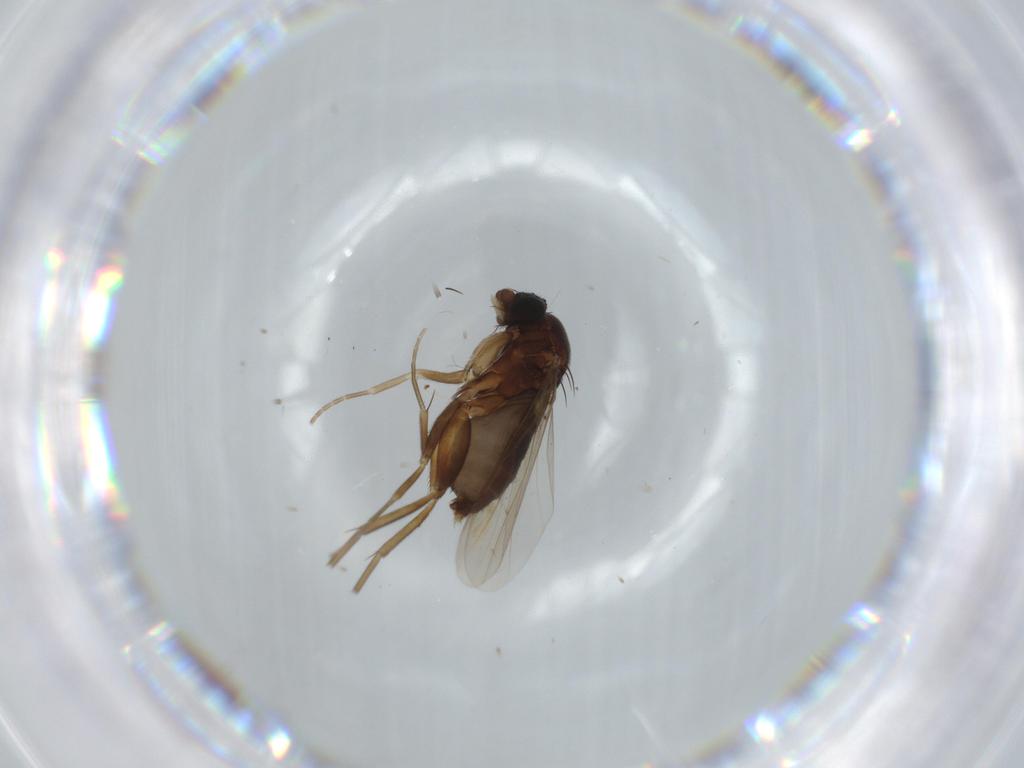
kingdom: Animalia
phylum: Arthropoda
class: Insecta
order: Diptera
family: Phoridae
